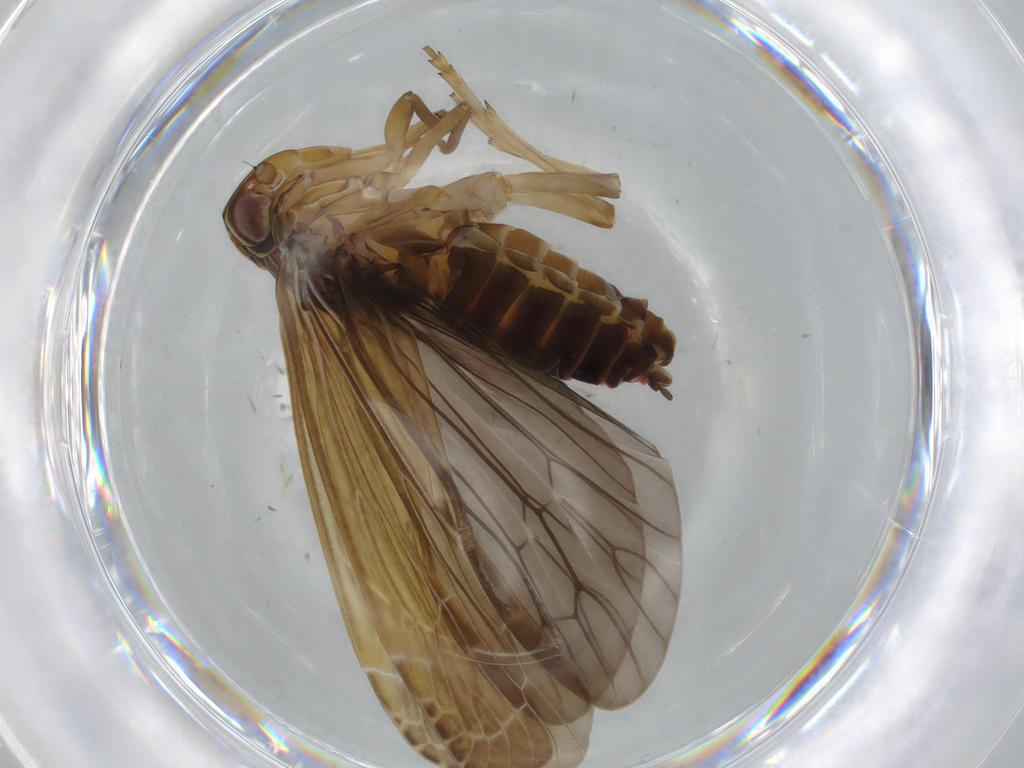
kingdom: Animalia
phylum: Arthropoda
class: Insecta
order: Hemiptera
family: Achilidae
